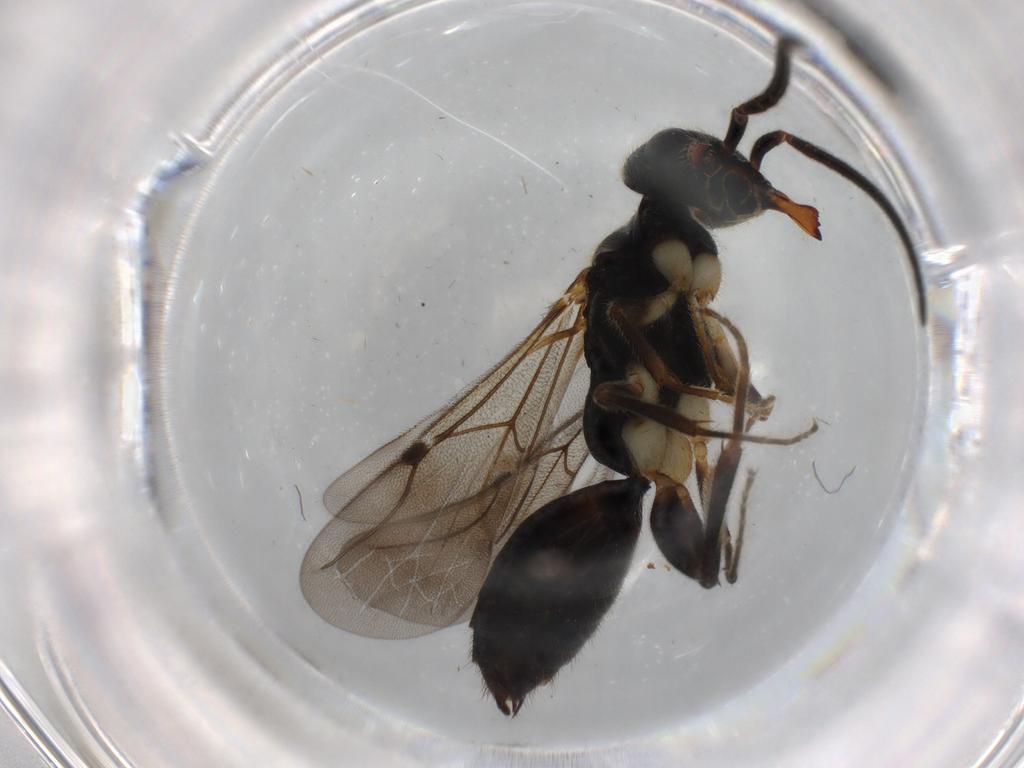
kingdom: Animalia
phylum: Arthropoda
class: Insecta
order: Hymenoptera
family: Bethylidae
